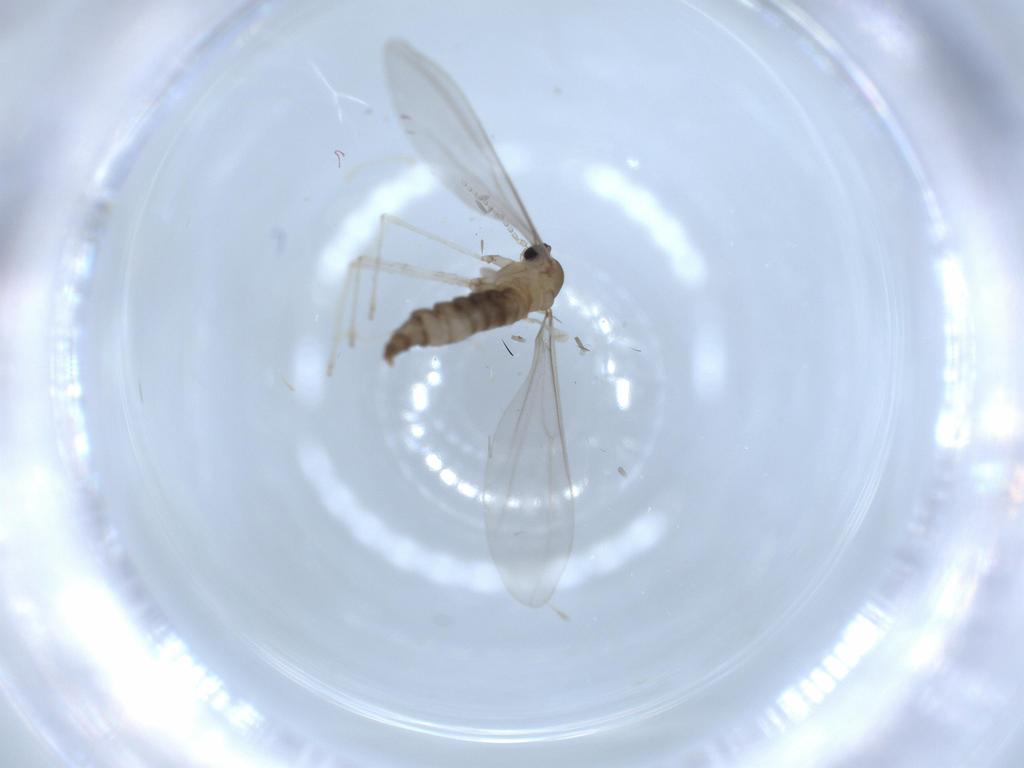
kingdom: Animalia
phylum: Arthropoda
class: Insecta
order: Diptera
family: Cecidomyiidae
